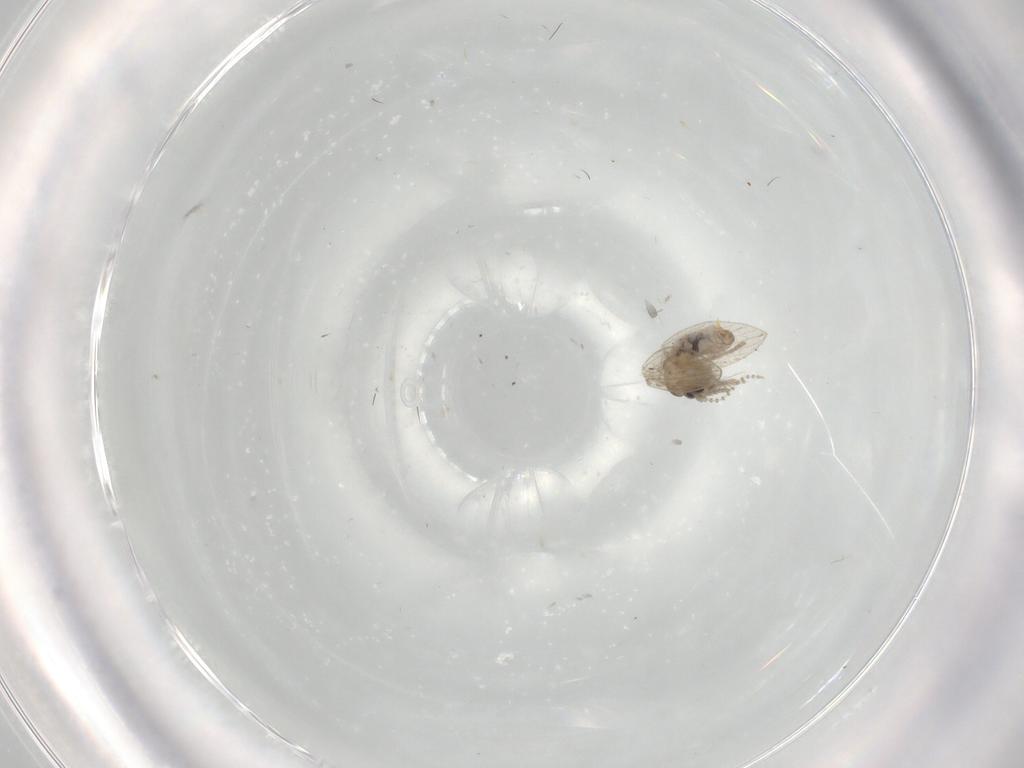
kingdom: Animalia
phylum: Arthropoda
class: Insecta
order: Diptera
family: Psychodidae
